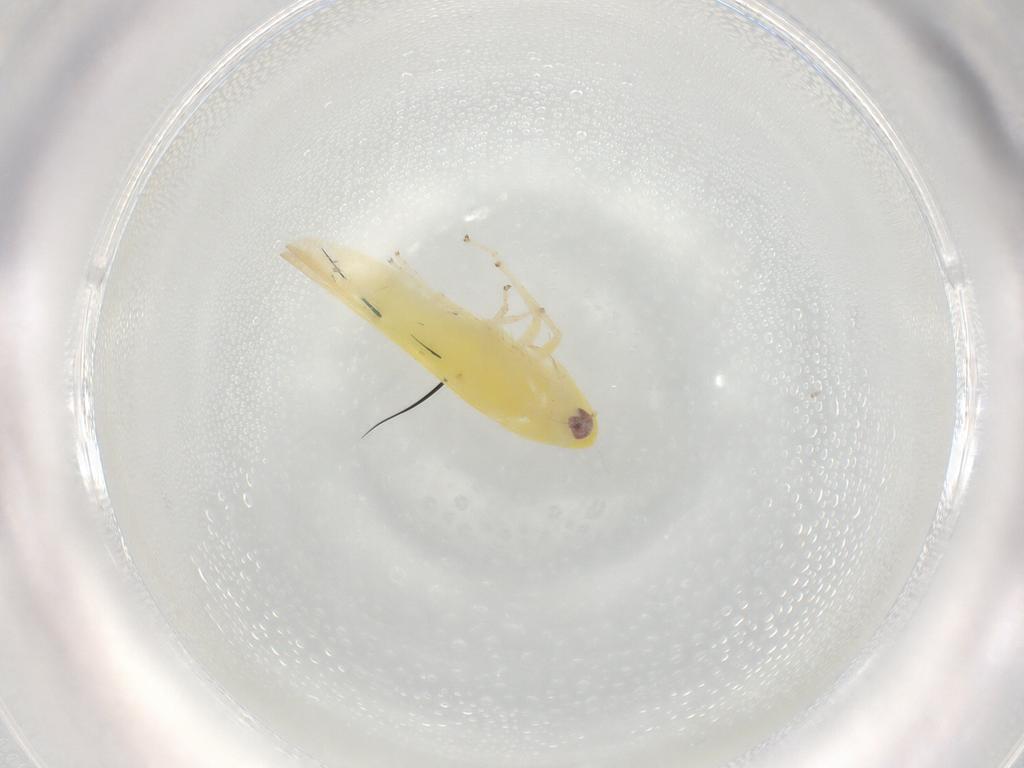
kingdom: Animalia
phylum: Arthropoda
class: Insecta
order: Hemiptera
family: Cicadellidae
